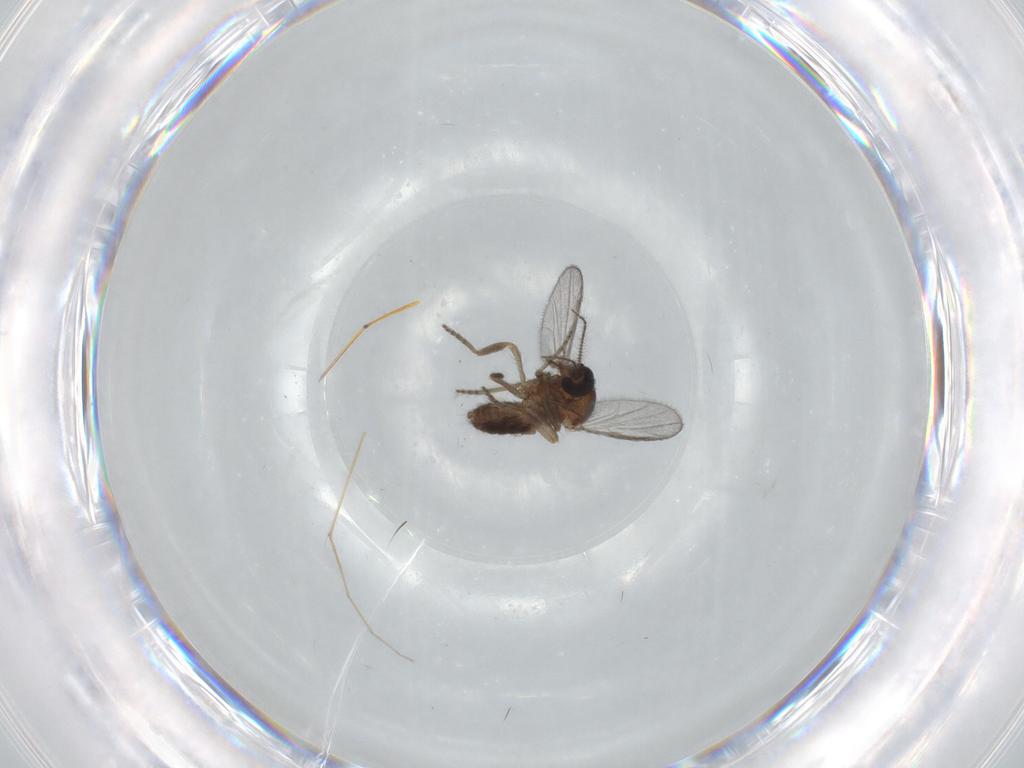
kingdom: Animalia
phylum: Arthropoda
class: Insecta
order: Diptera
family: Ceratopogonidae
